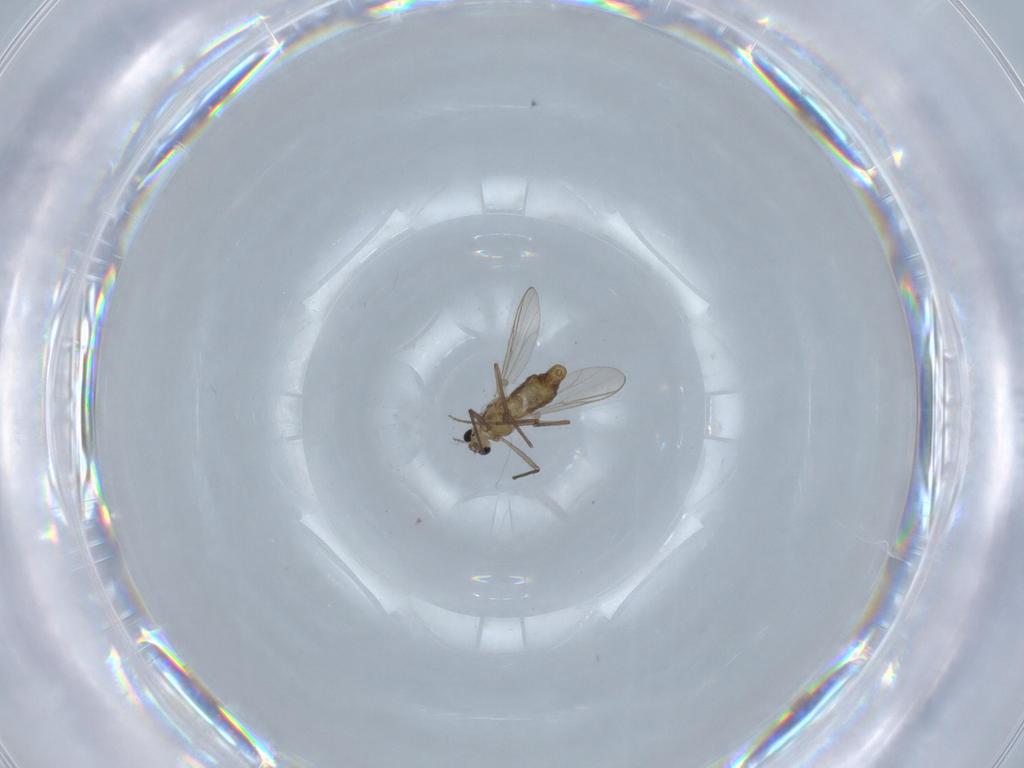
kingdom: Animalia
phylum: Arthropoda
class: Insecta
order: Diptera
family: Chironomidae
